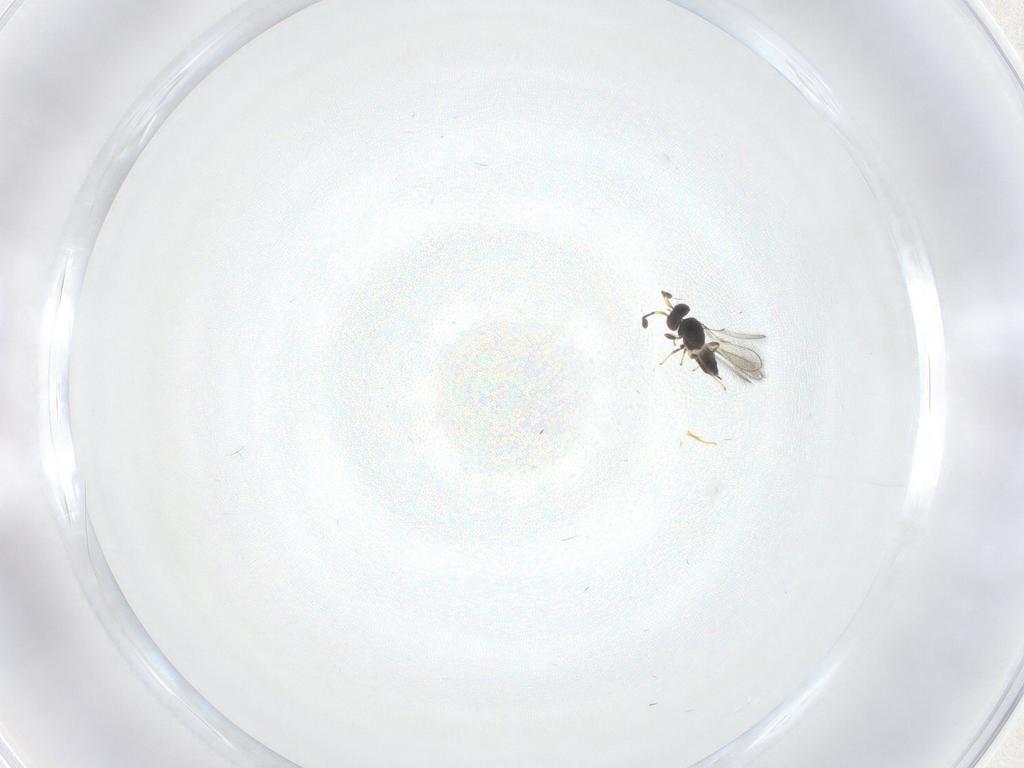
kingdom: Animalia
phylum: Arthropoda
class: Insecta
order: Hymenoptera
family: Mymaridae
